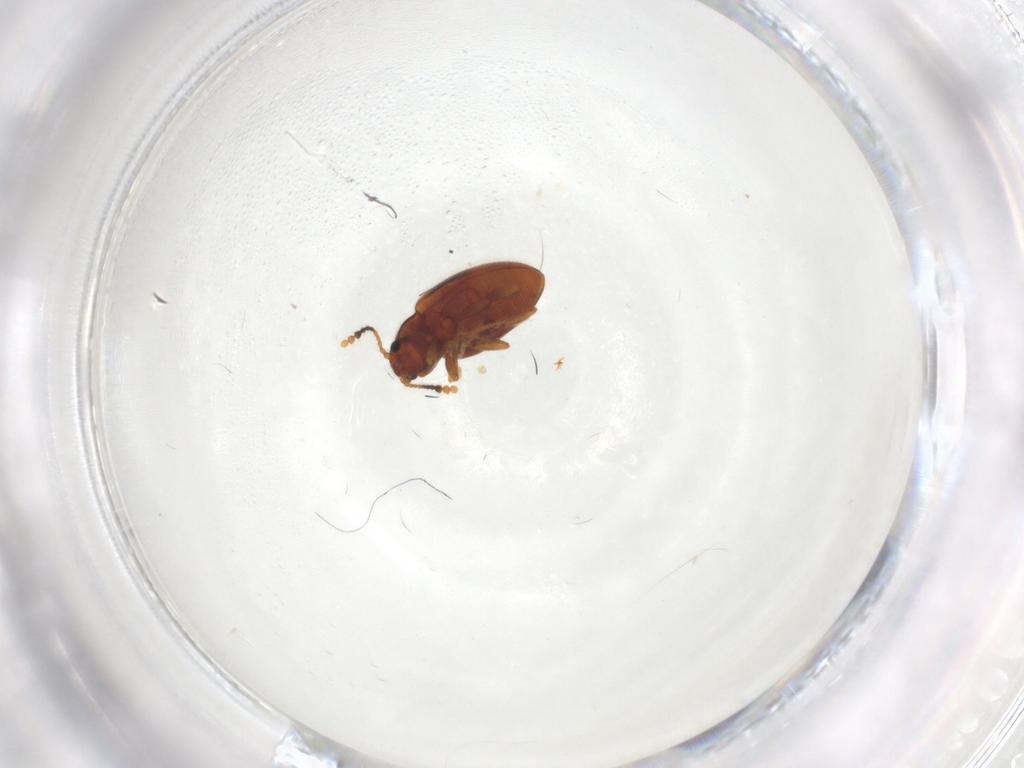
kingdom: Animalia
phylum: Arthropoda
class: Insecta
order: Coleoptera
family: Erotylidae
